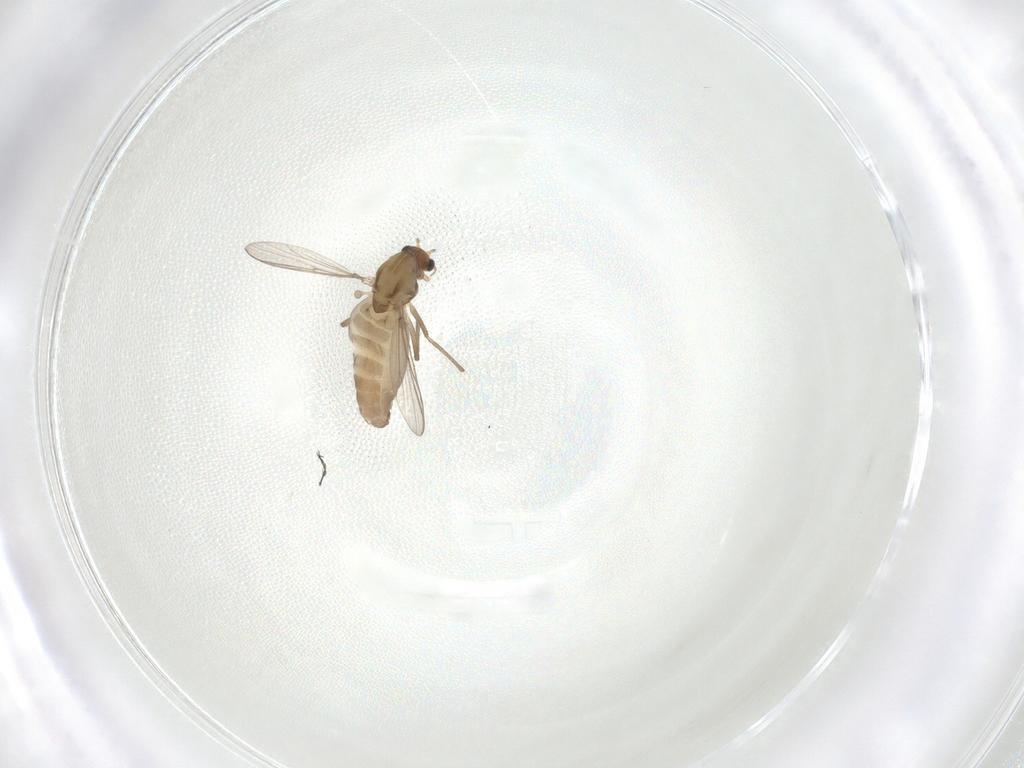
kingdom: Animalia
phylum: Arthropoda
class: Insecta
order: Diptera
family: Chironomidae
